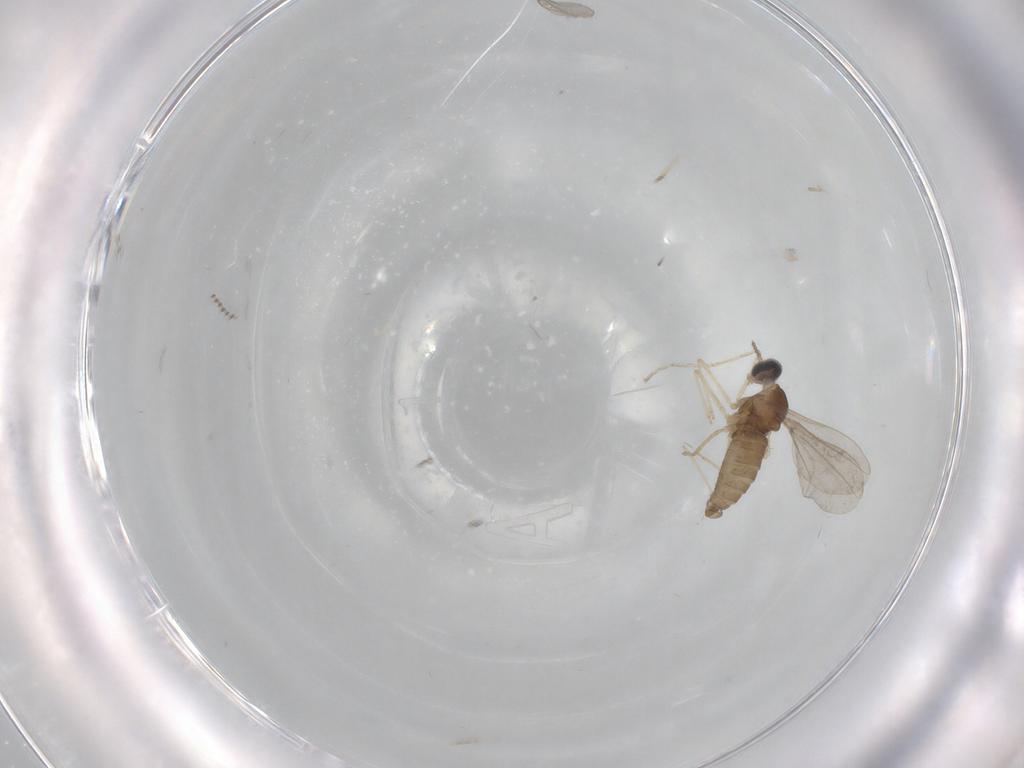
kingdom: Animalia
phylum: Arthropoda
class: Insecta
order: Diptera
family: Cecidomyiidae
